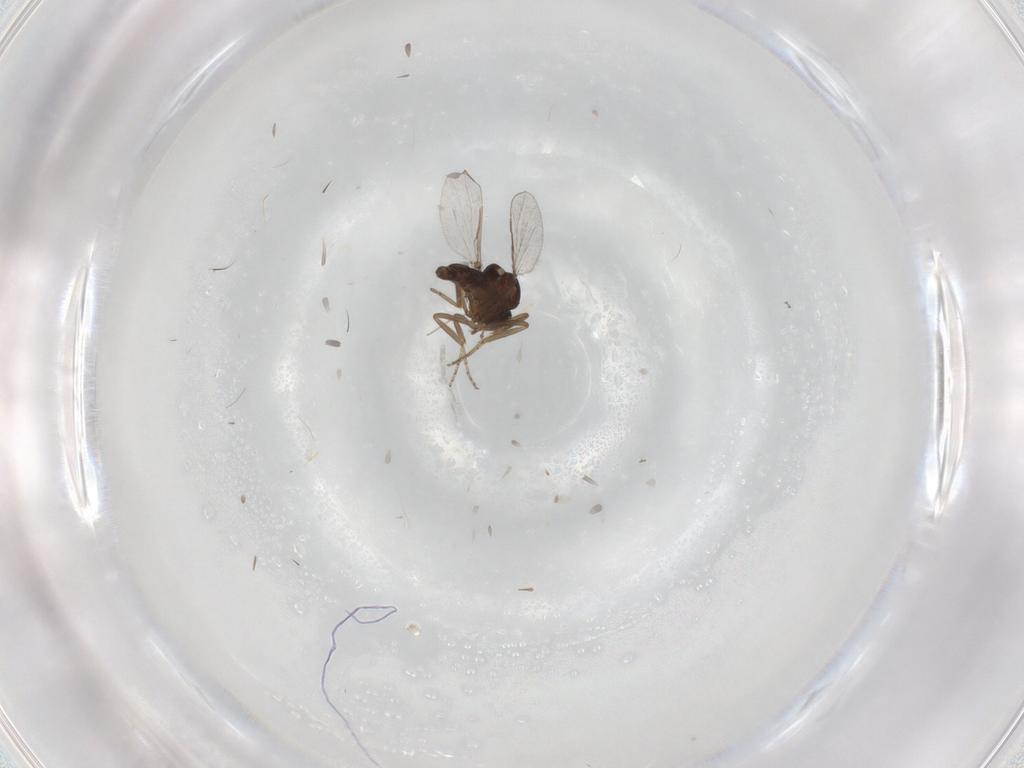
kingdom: Animalia
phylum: Arthropoda
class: Insecta
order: Diptera
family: Ceratopogonidae
